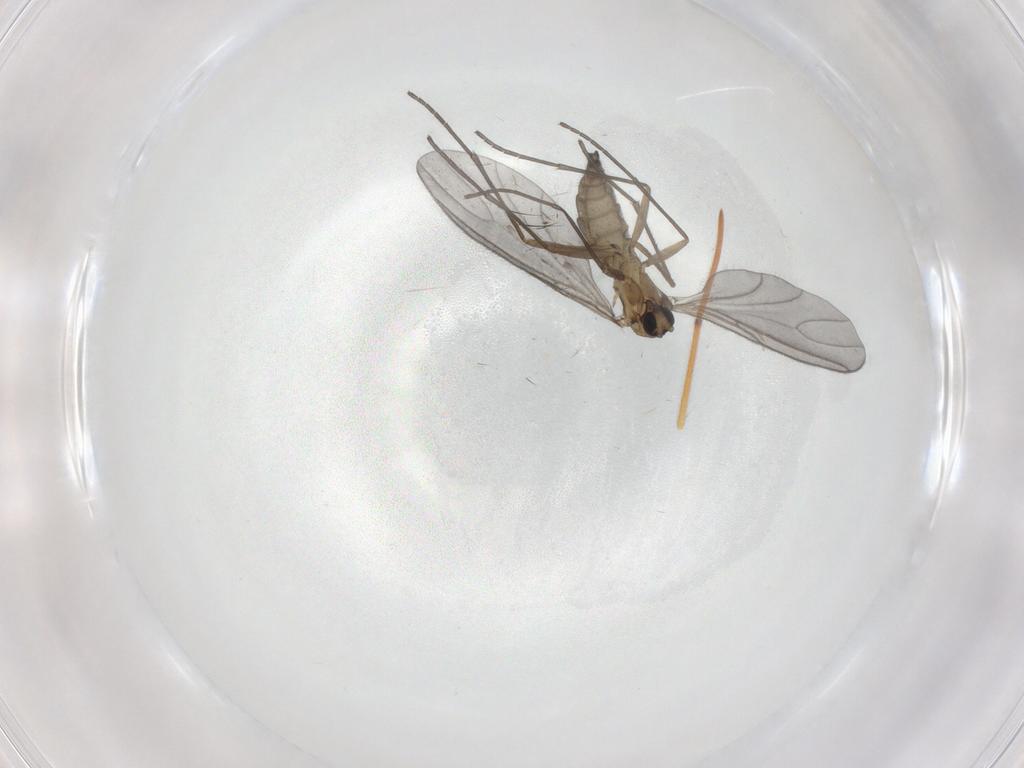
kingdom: Animalia
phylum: Arthropoda
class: Insecta
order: Diptera
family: Sciaridae
